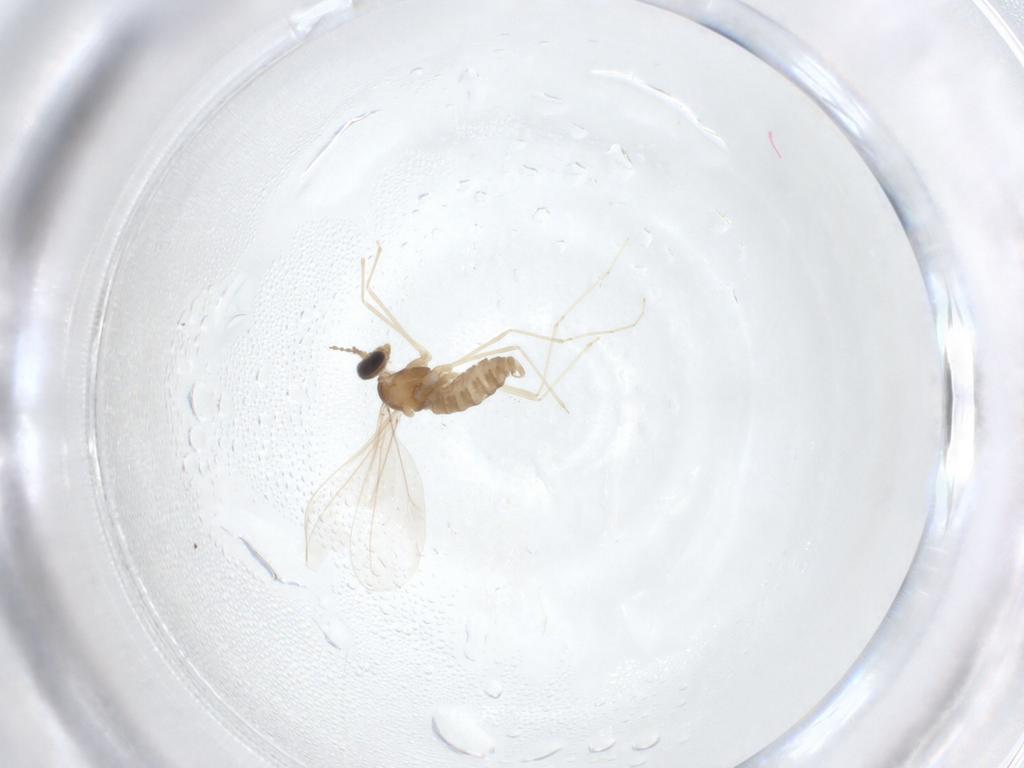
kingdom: Animalia
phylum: Arthropoda
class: Insecta
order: Diptera
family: Cecidomyiidae
